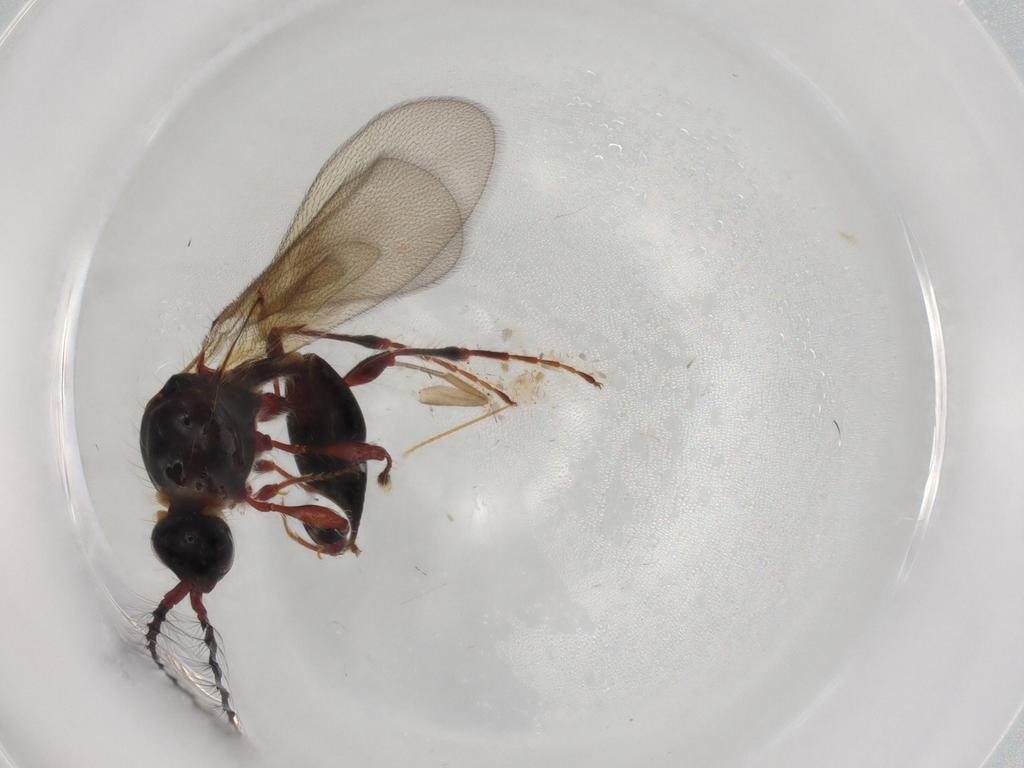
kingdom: Animalia
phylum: Arthropoda
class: Insecta
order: Hymenoptera
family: Diapriidae
